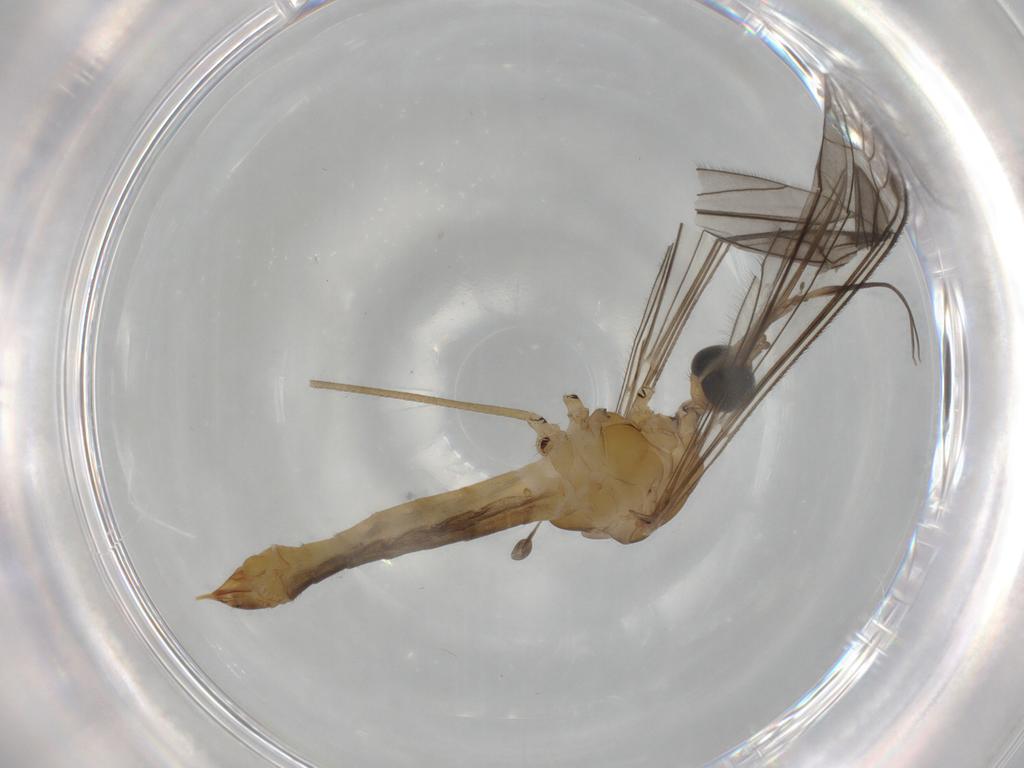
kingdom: Animalia
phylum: Arthropoda
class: Insecta
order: Diptera
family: Limoniidae
